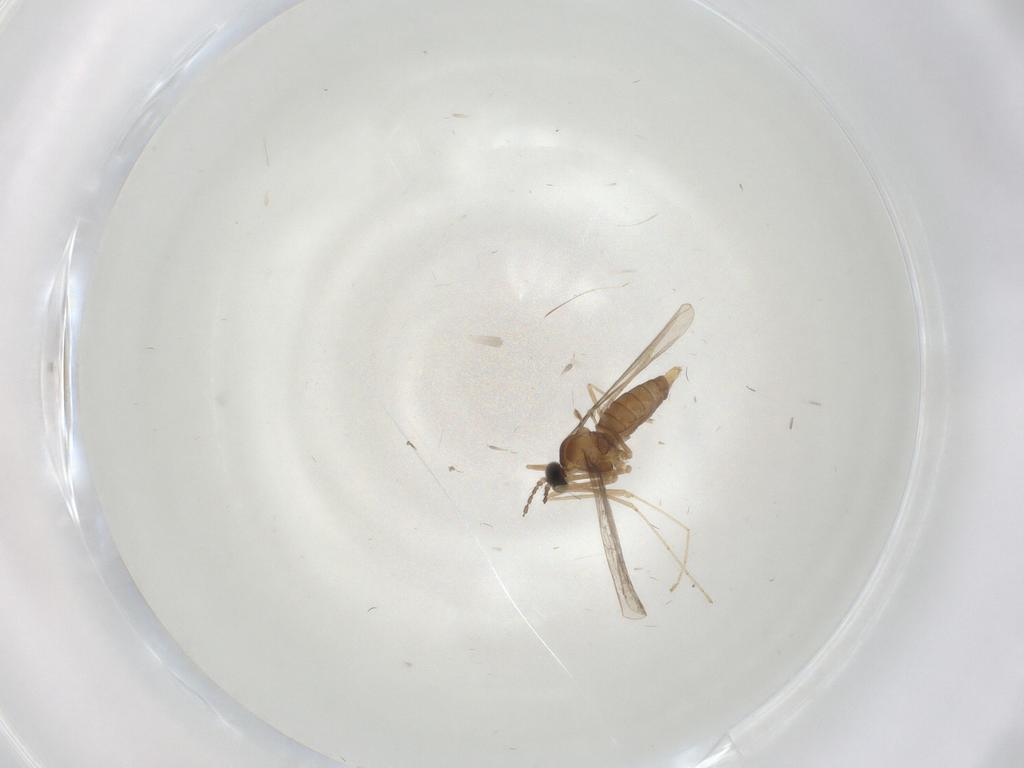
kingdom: Animalia
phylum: Arthropoda
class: Insecta
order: Diptera
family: Cecidomyiidae
